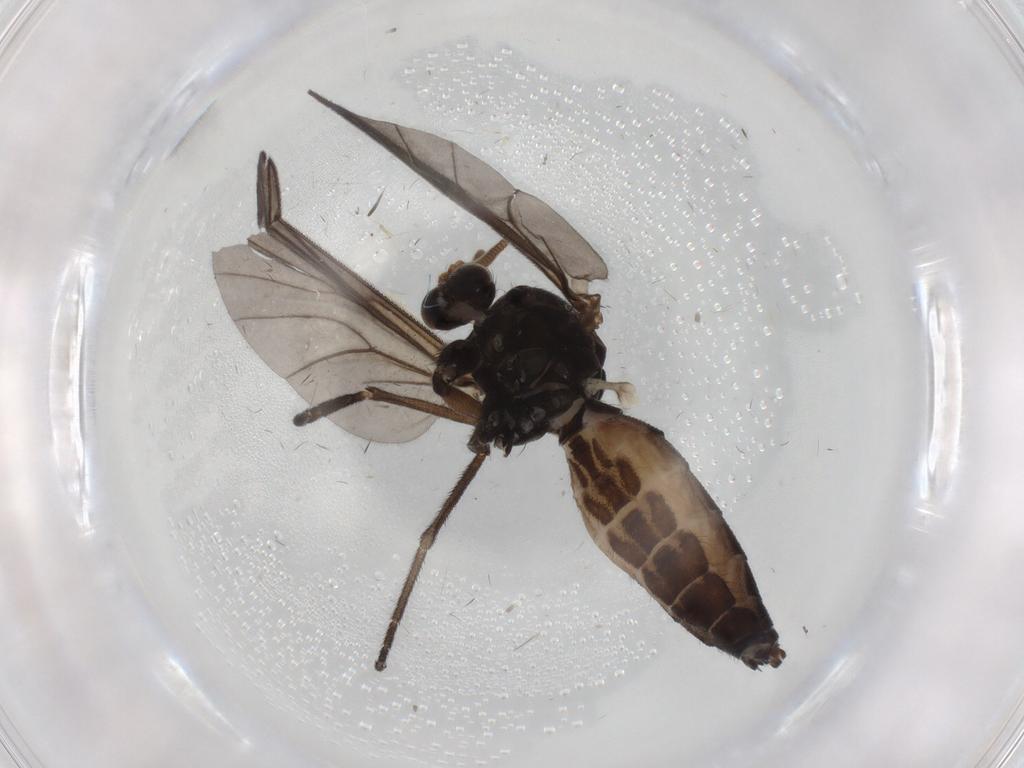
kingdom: Animalia
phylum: Arthropoda
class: Insecta
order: Diptera
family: Mycetophilidae
